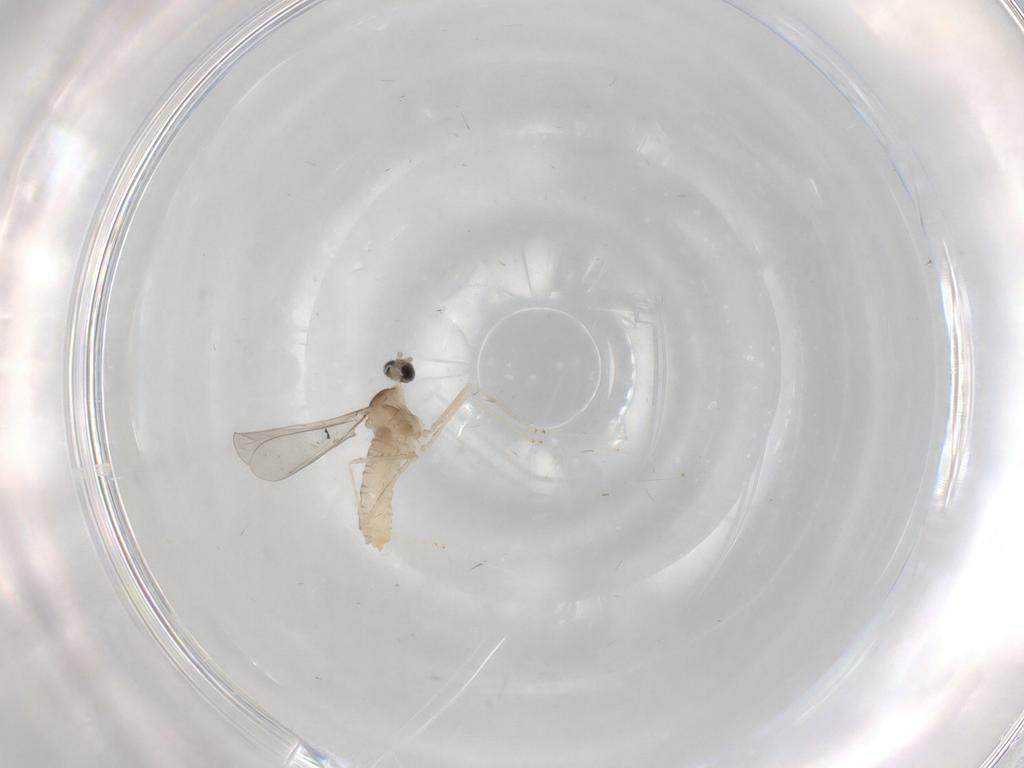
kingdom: Animalia
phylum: Arthropoda
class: Insecta
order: Diptera
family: Cecidomyiidae
